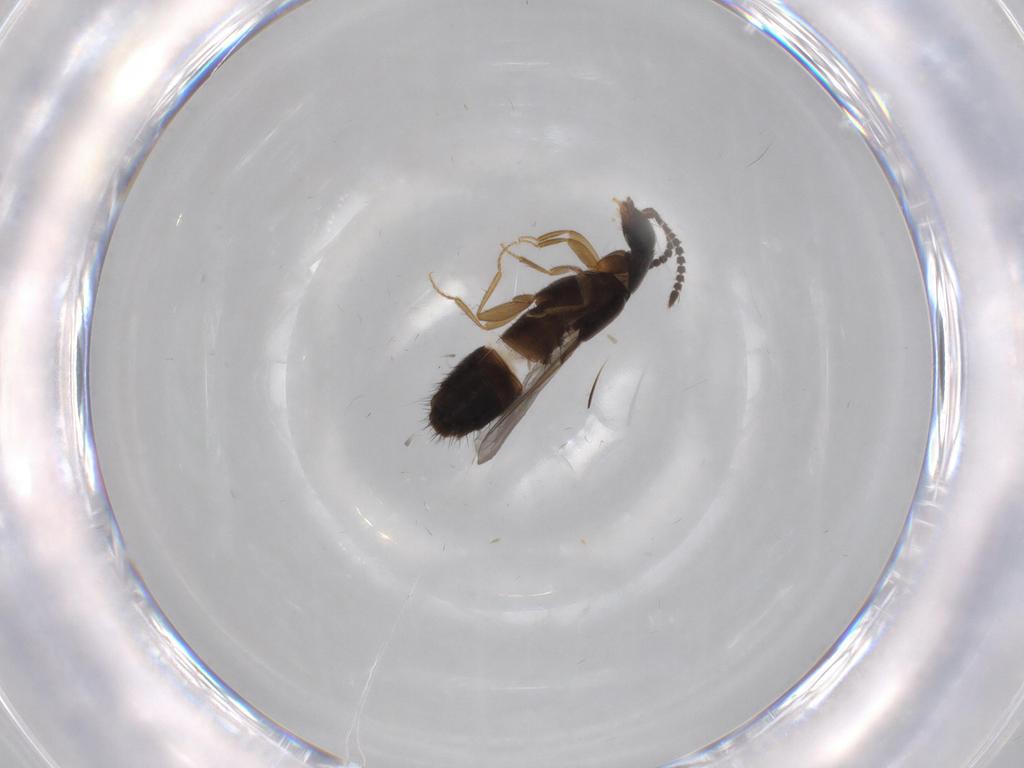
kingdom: Animalia
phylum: Arthropoda
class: Insecta
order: Coleoptera
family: Staphylinidae
